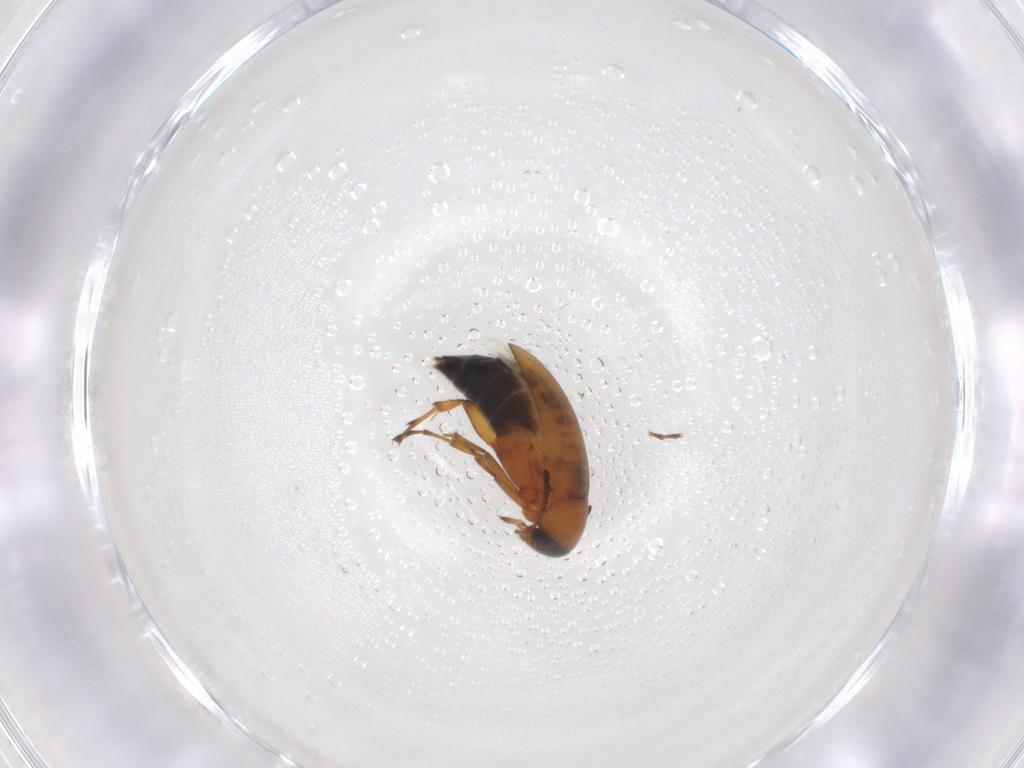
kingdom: Animalia
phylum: Arthropoda
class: Insecta
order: Coleoptera
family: Scraptiidae
